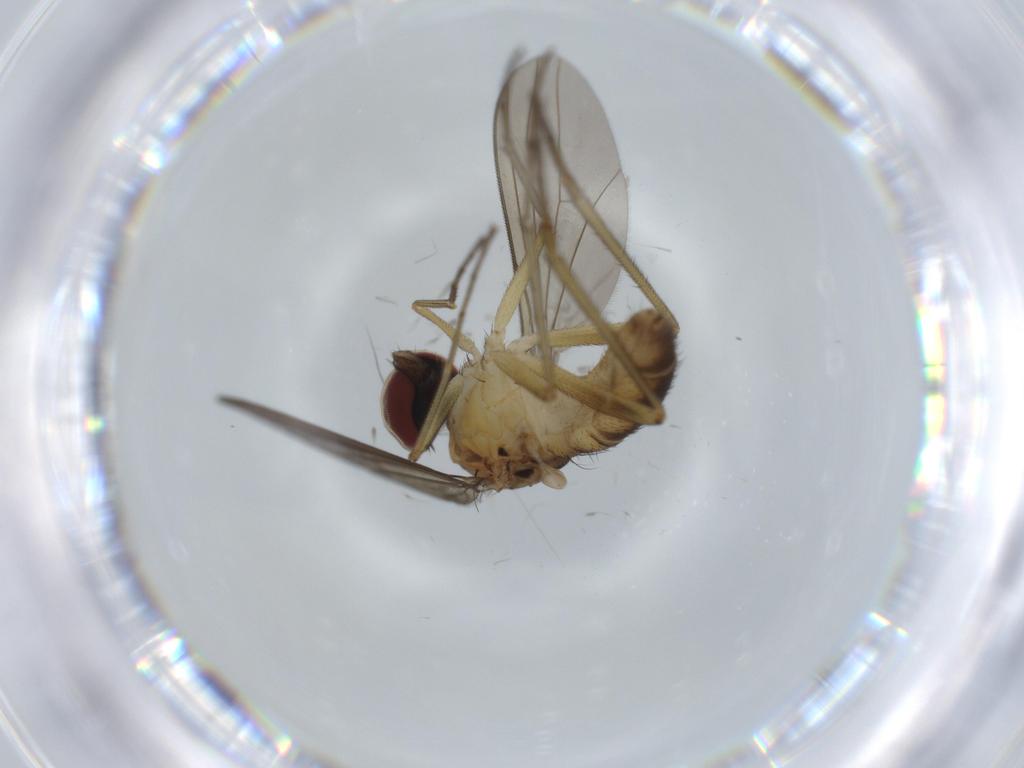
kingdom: Animalia
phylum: Arthropoda
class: Insecta
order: Diptera
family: Dolichopodidae
